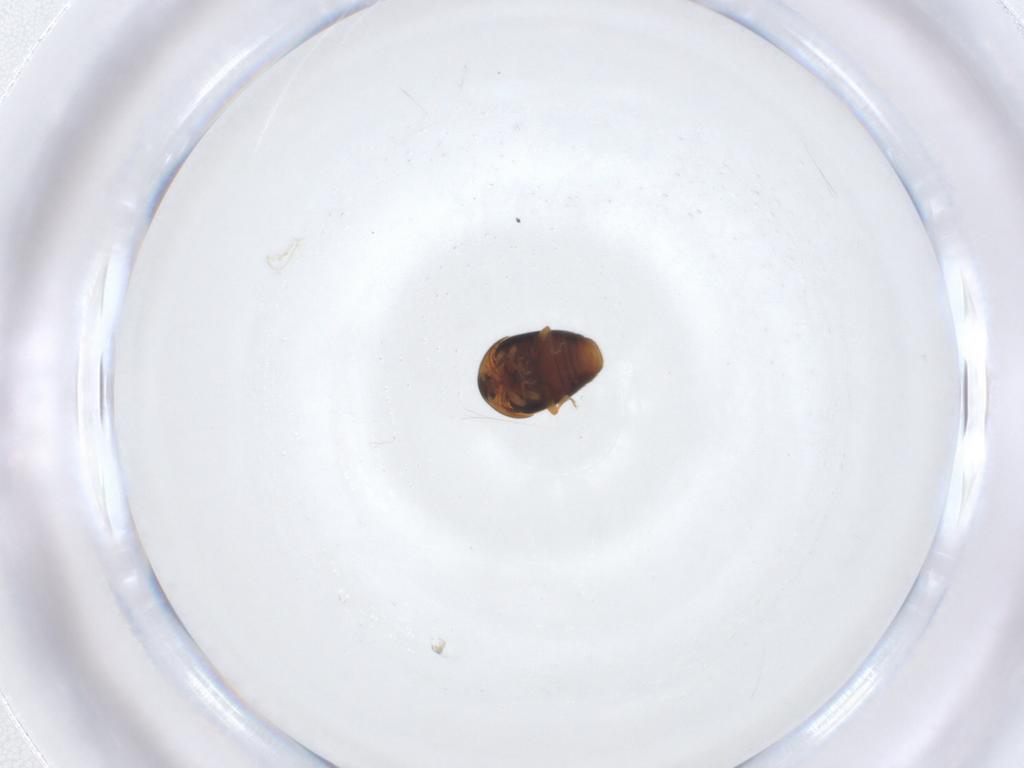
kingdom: Animalia
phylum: Arthropoda
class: Insecta
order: Coleoptera
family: Corylophidae
